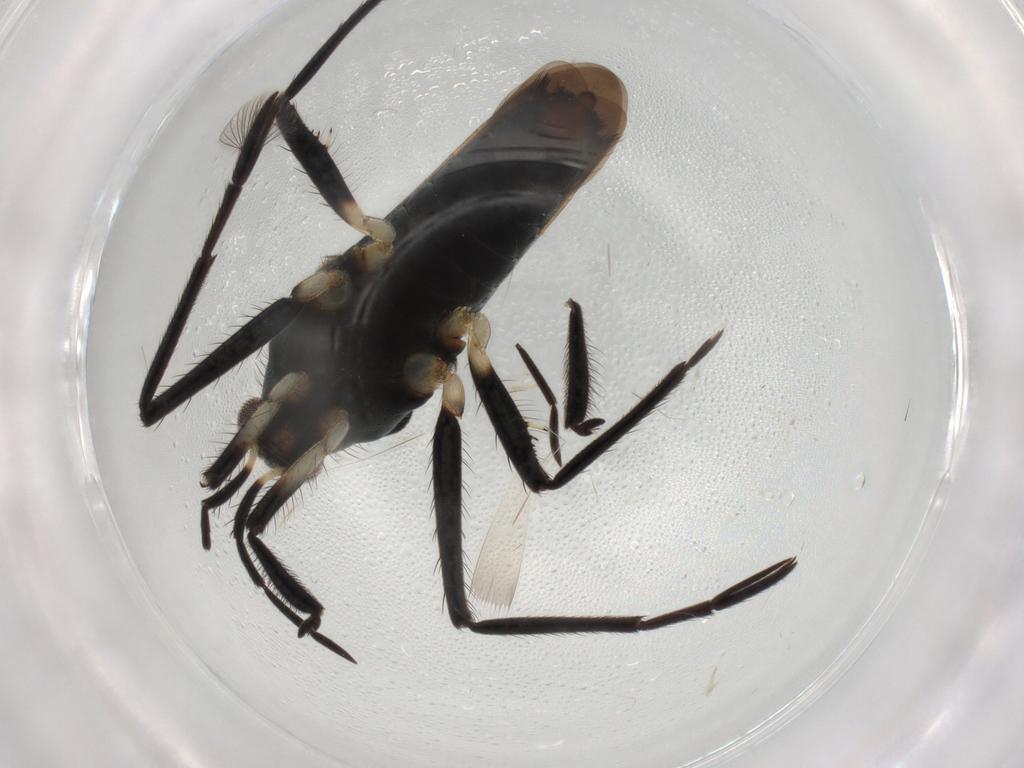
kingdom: Animalia
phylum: Arthropoda
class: Insecta
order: Hemiptera
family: Veliidae
